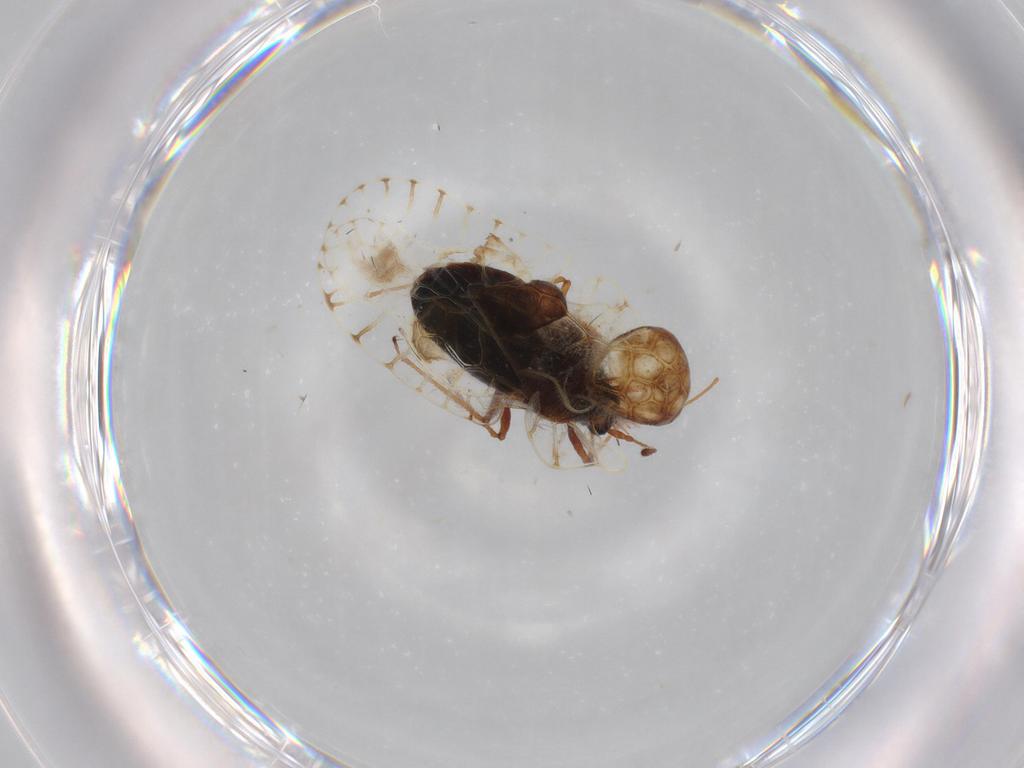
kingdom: Animalia
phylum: Arthropoda
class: Insecta
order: Hemiptera
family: Tingidae
